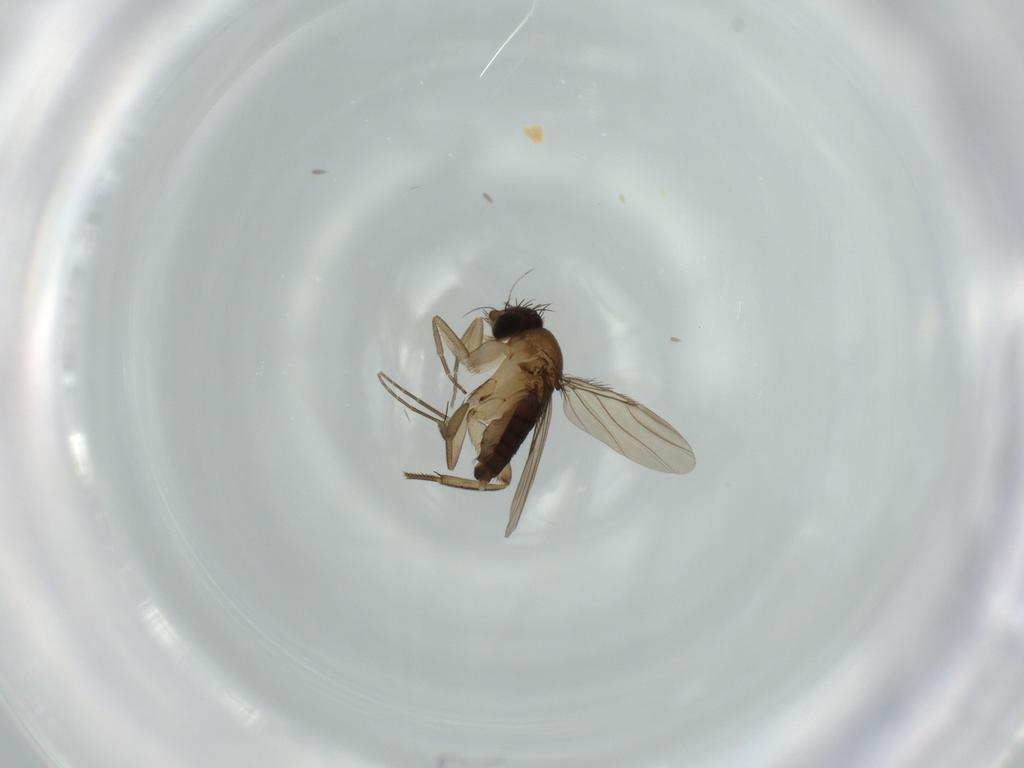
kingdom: Animalia
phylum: Arthropoda
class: Insecta
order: Diptera
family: Phoridae
